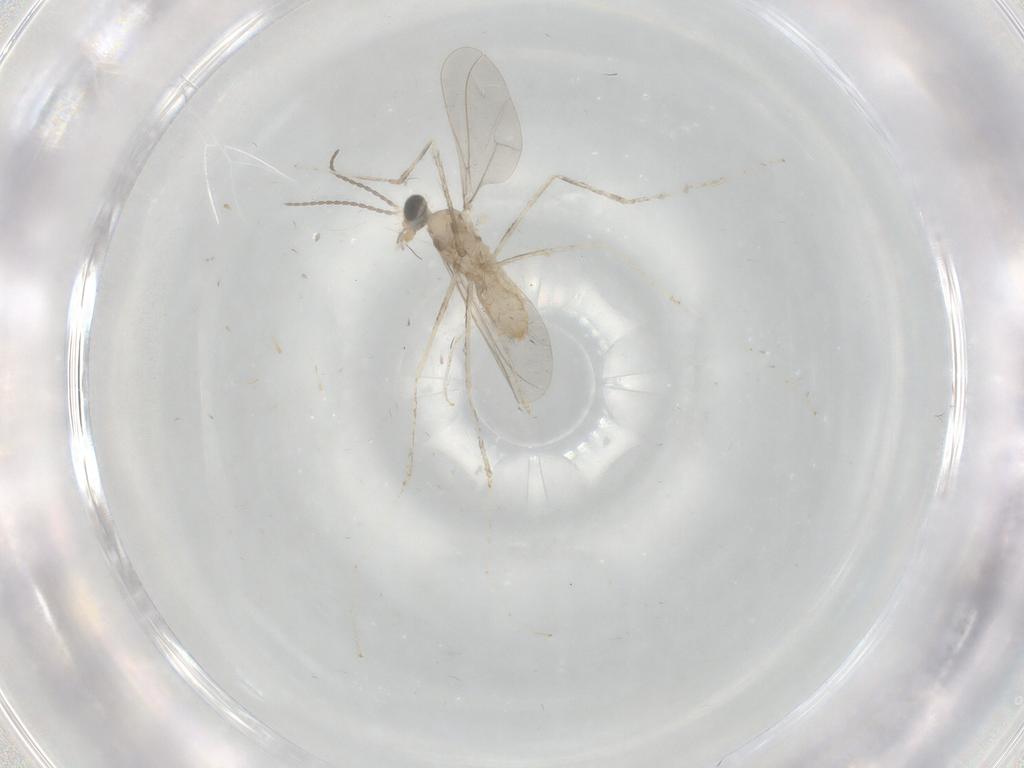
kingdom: Animalia
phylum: Arthropoda
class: Insecta
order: Diptera
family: Cecidomyiidae
